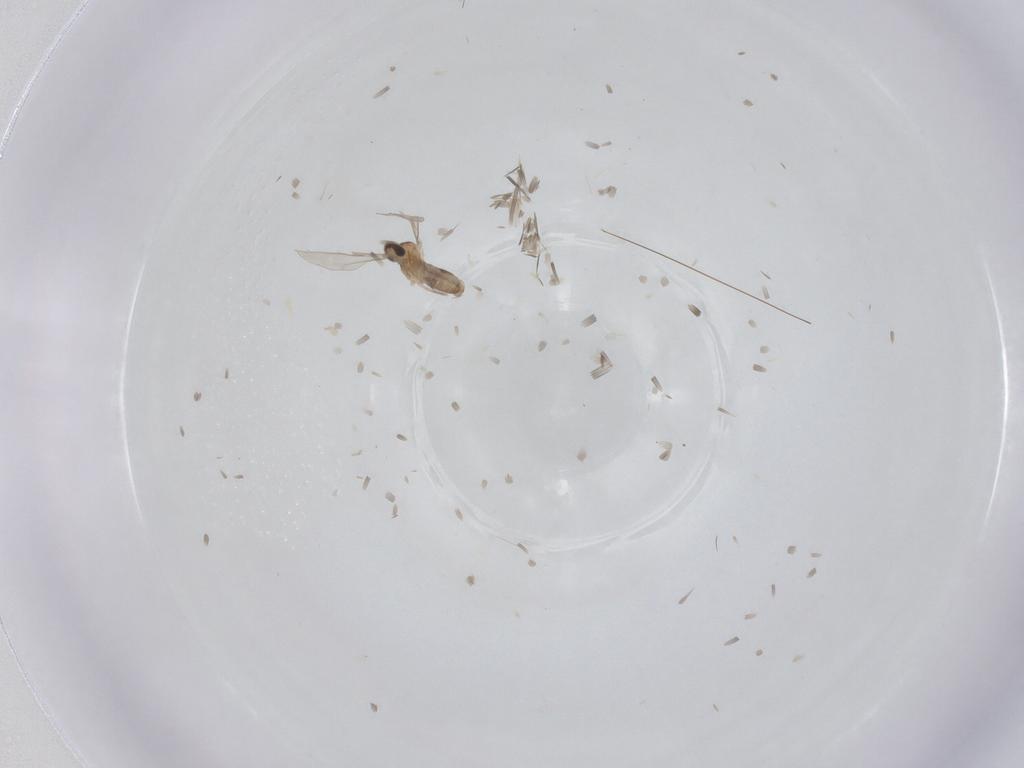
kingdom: Animalia
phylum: Arthropoda
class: Insecta
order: Diptera
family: Cecidomyiidae
